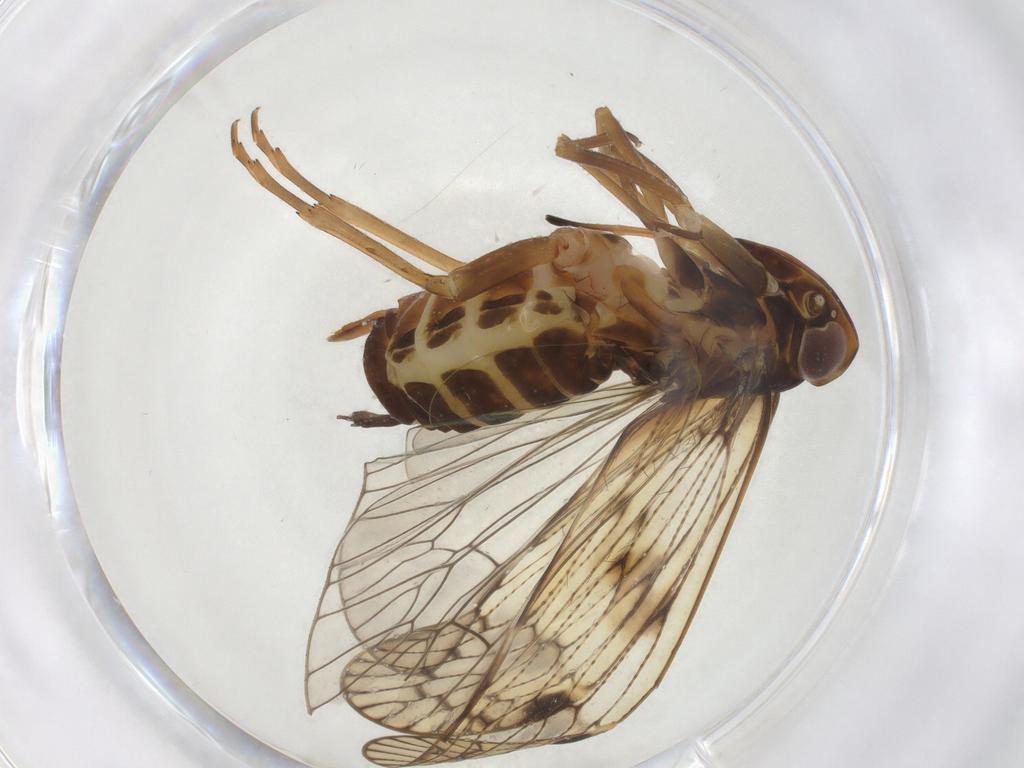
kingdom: Animalia
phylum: Arthropoda
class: Insecta
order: Hemiptera
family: Cixiidae
